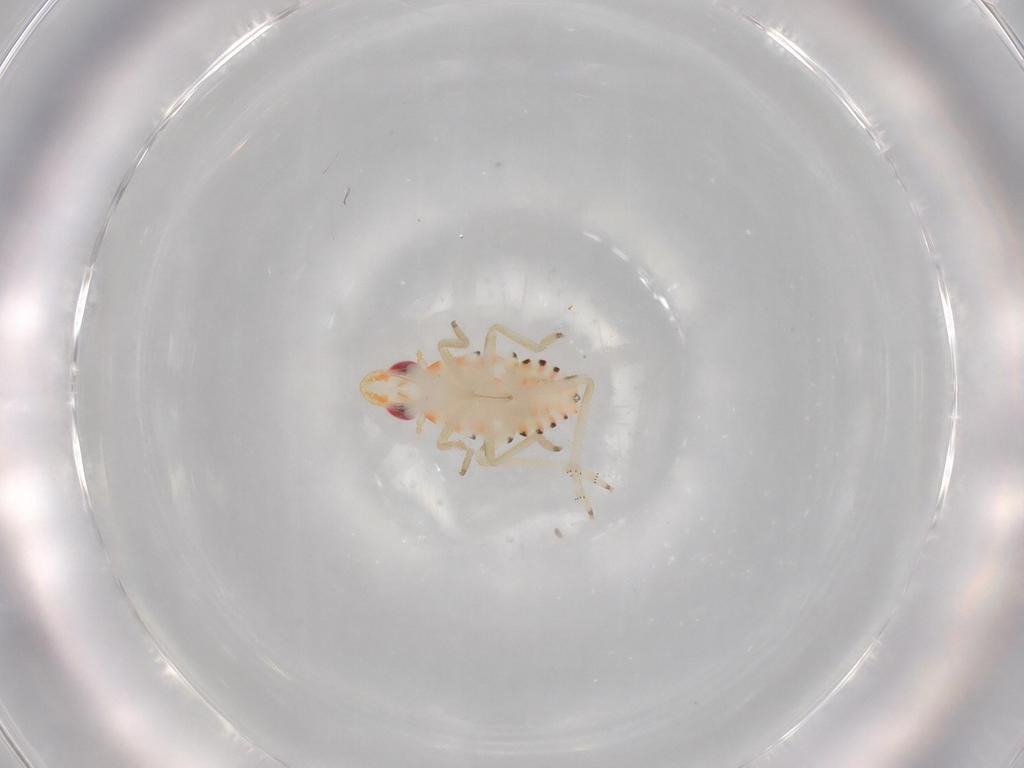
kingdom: Animalia
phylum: Arthropoda
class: Insecta
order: Hemiptera
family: Tropiduchidae
